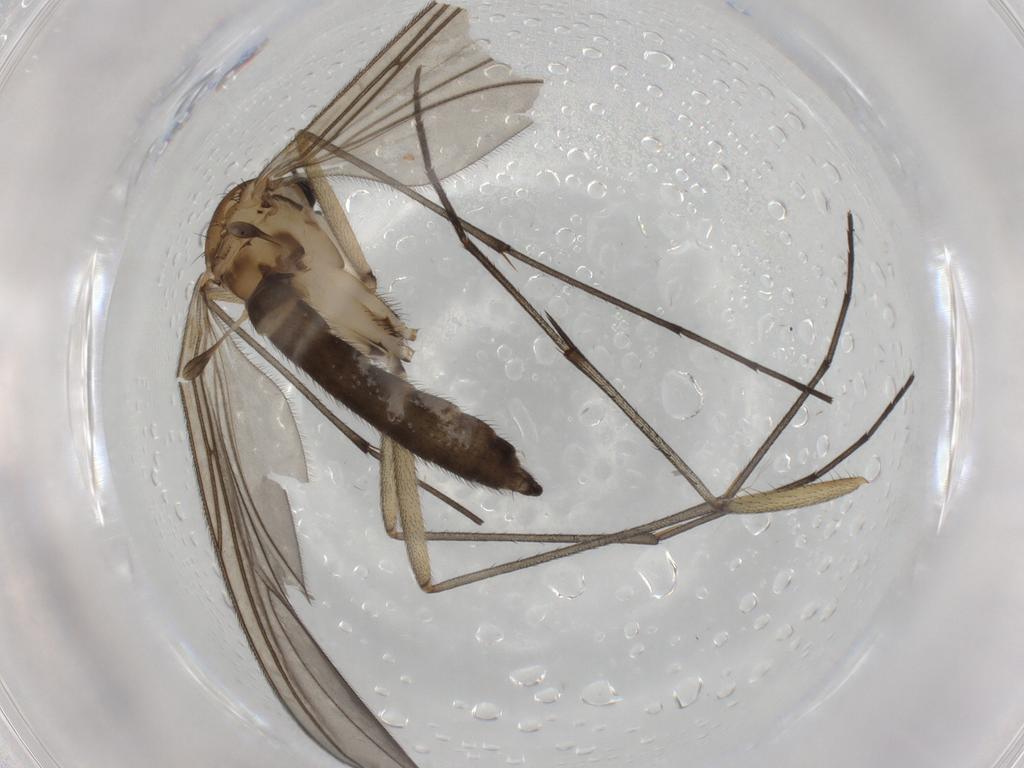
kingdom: Animalia
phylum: Arthropoda
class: Insecta
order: Diptera
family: Sciaridae
